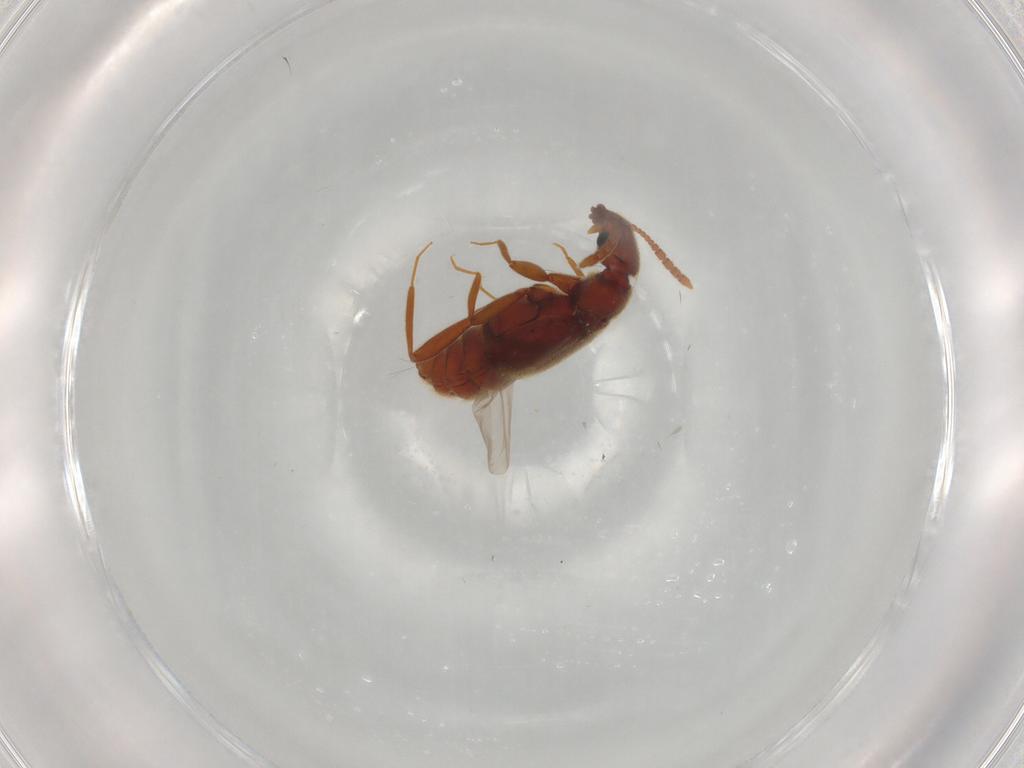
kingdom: Animalia
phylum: Arthropoda
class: Insecta
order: Coleoptera
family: Staphylinidae
